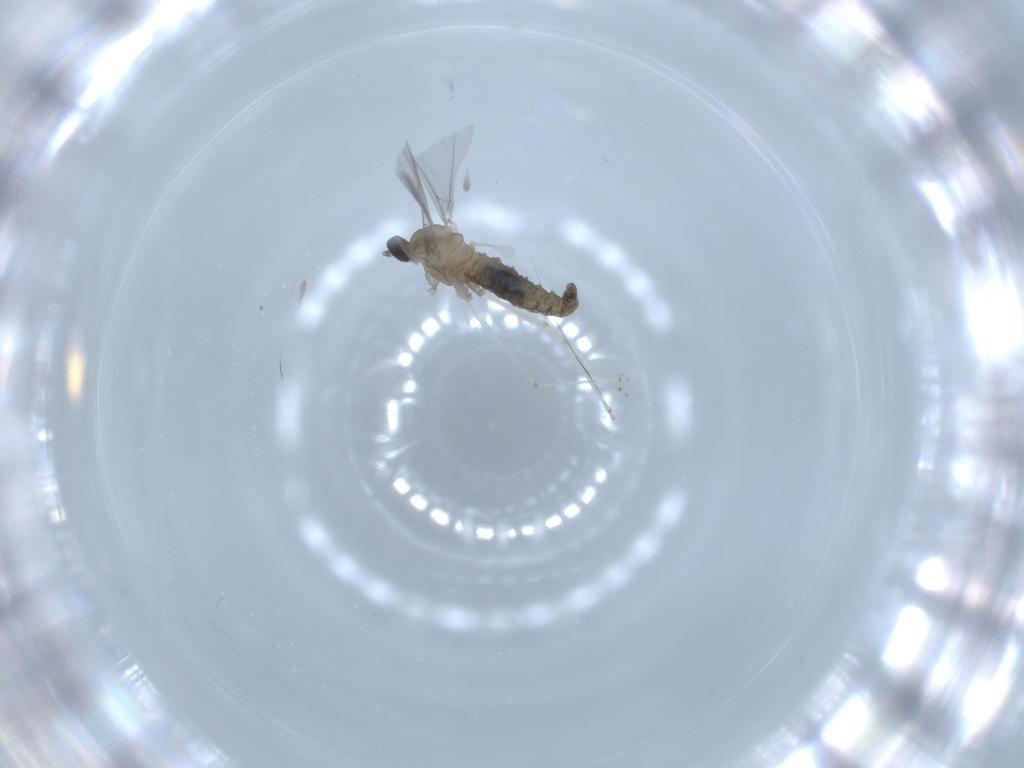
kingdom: Animalia
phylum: Arthropoda
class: Insecta
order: Diptera
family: Cecidomyiidae
